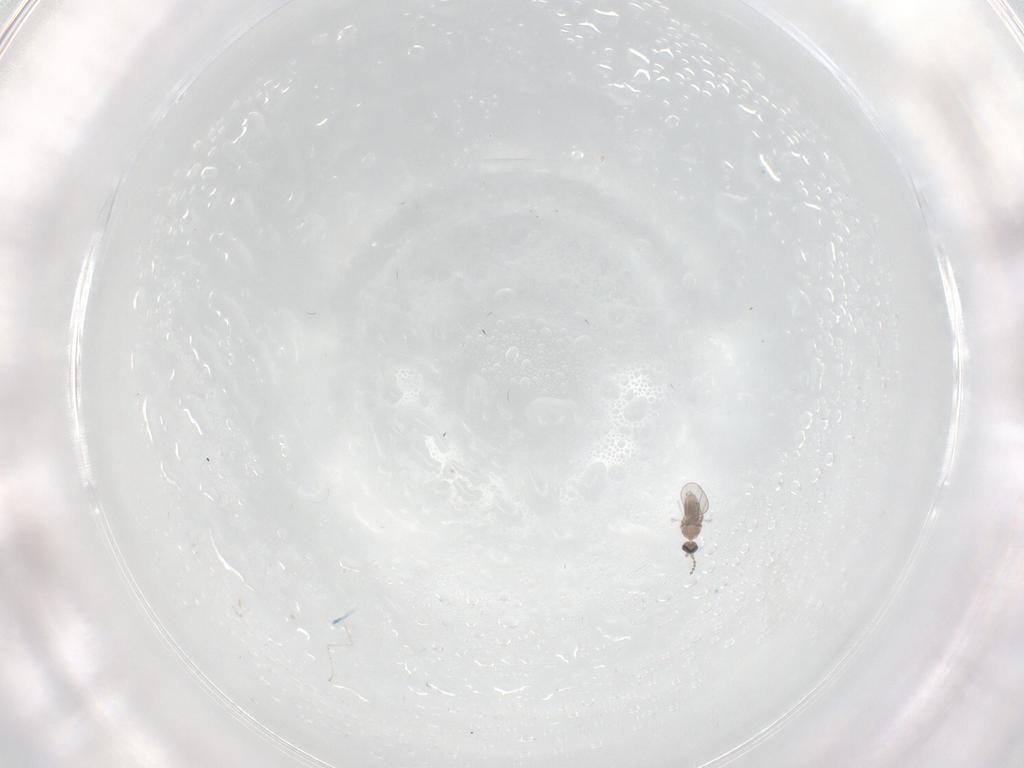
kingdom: Animalia
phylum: Arthropoda
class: Insecta
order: Diptera
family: Cecidomyiidae
